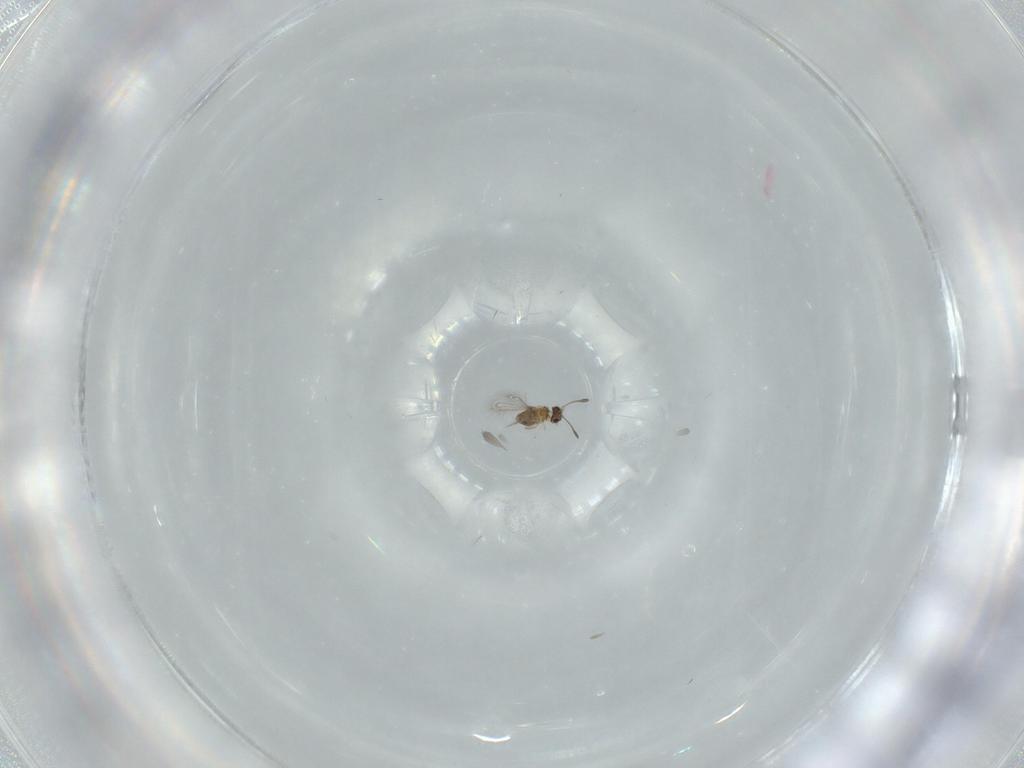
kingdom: Animalia
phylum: Arthropoda
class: Insecta
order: Hymenoptera
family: Mymaridae
